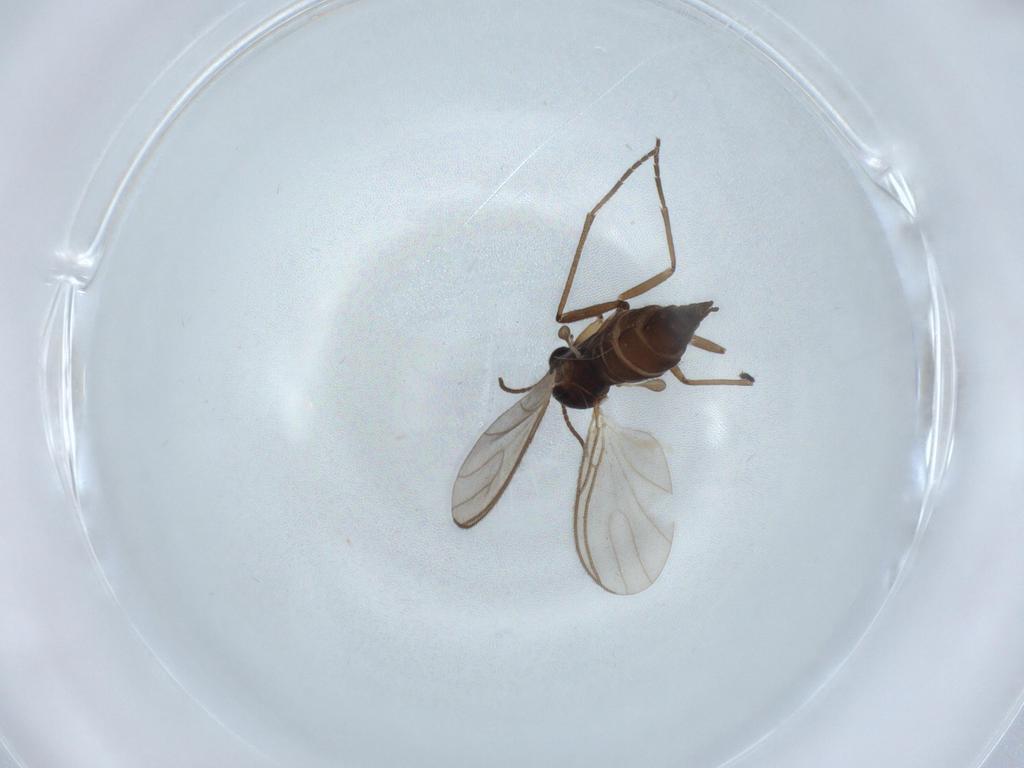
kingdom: Animalia
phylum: Arthropoda
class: Insecta
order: Diptera
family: Sciaridae
